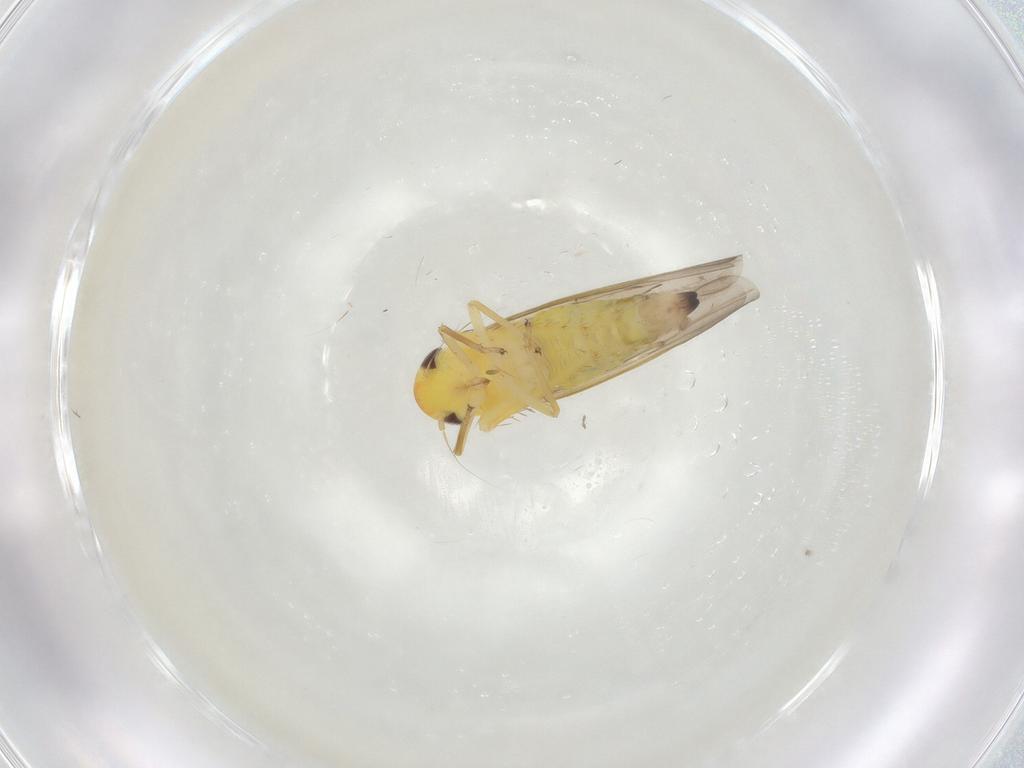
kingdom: Animalia
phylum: Arthropoda
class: Insecta
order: Hemiptera
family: Cicadellidae
